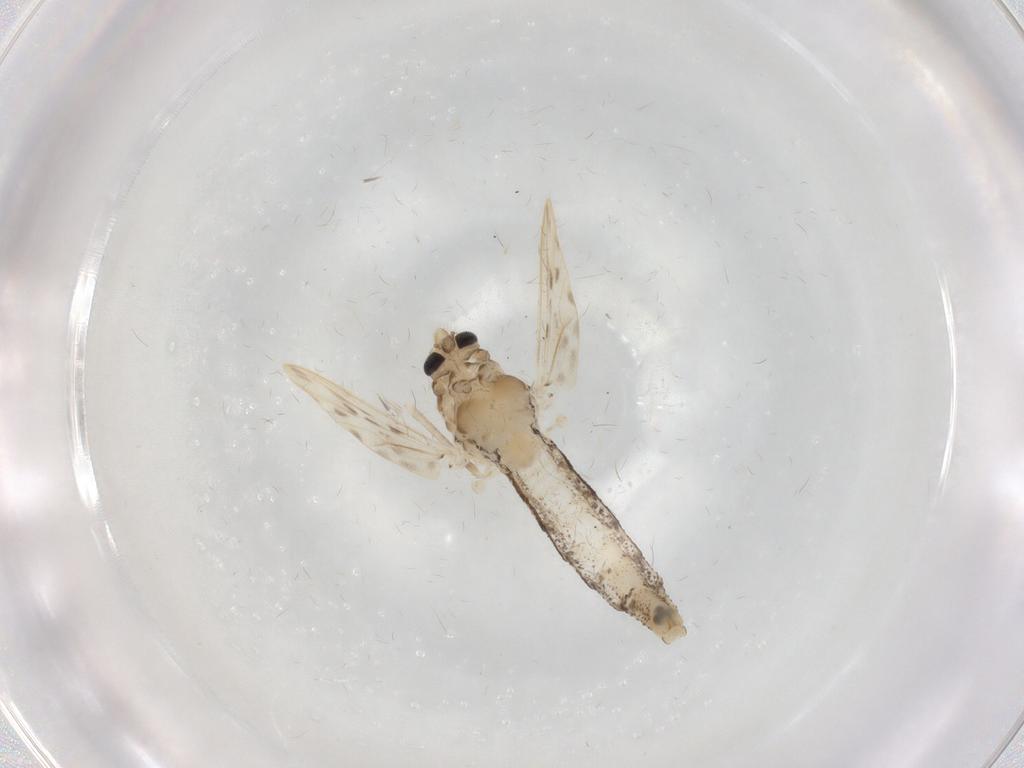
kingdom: Animalia
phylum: Arthropoda
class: Insecta
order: Diptera
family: Chaoboridae
